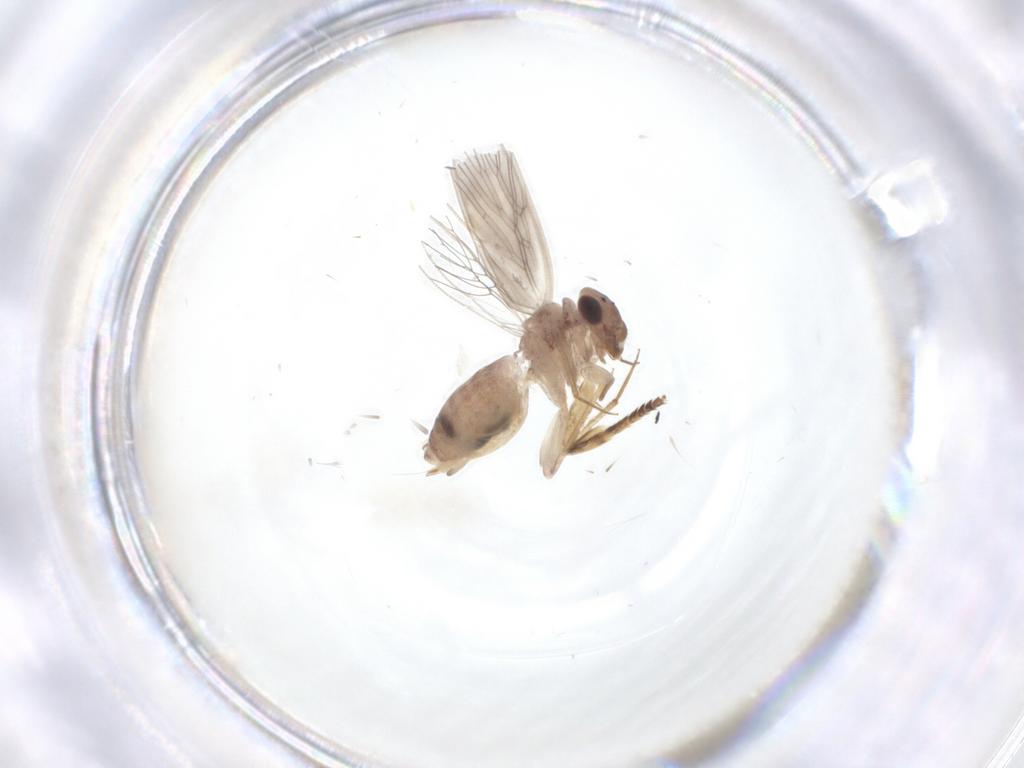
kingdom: Animalia
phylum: Arthropoda
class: Insecta
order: Psocodea
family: Lepidopsocidae
